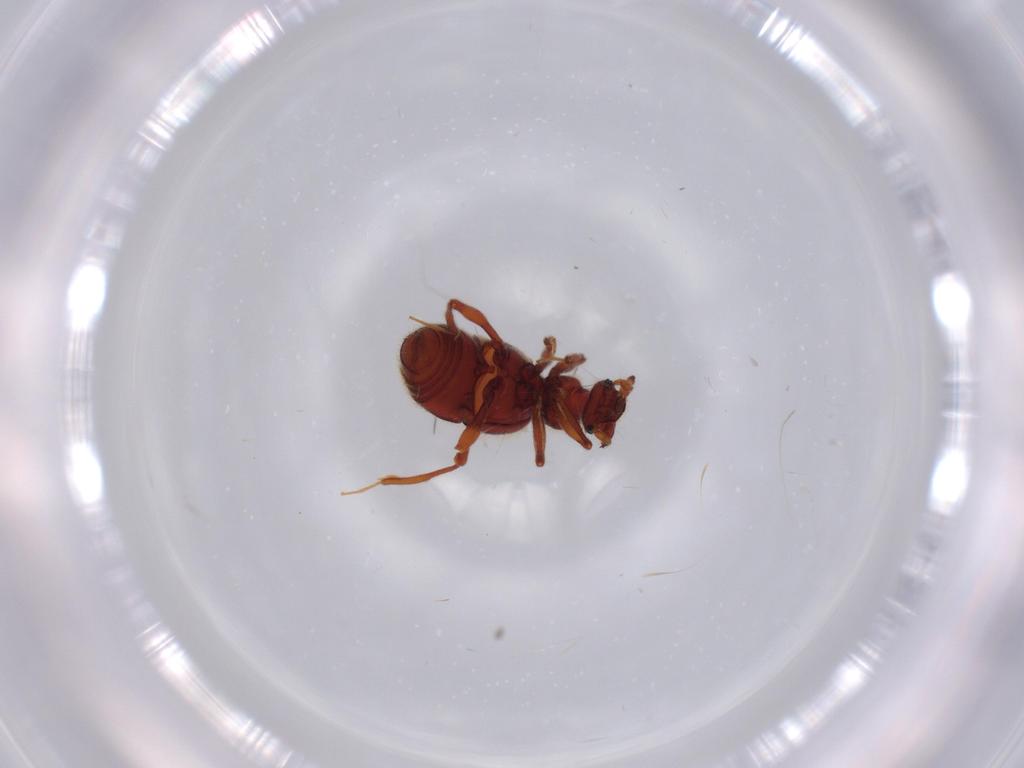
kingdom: Animalia
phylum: Arthropoda
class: Insecta
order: Coleoptera
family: Staphylinidae
